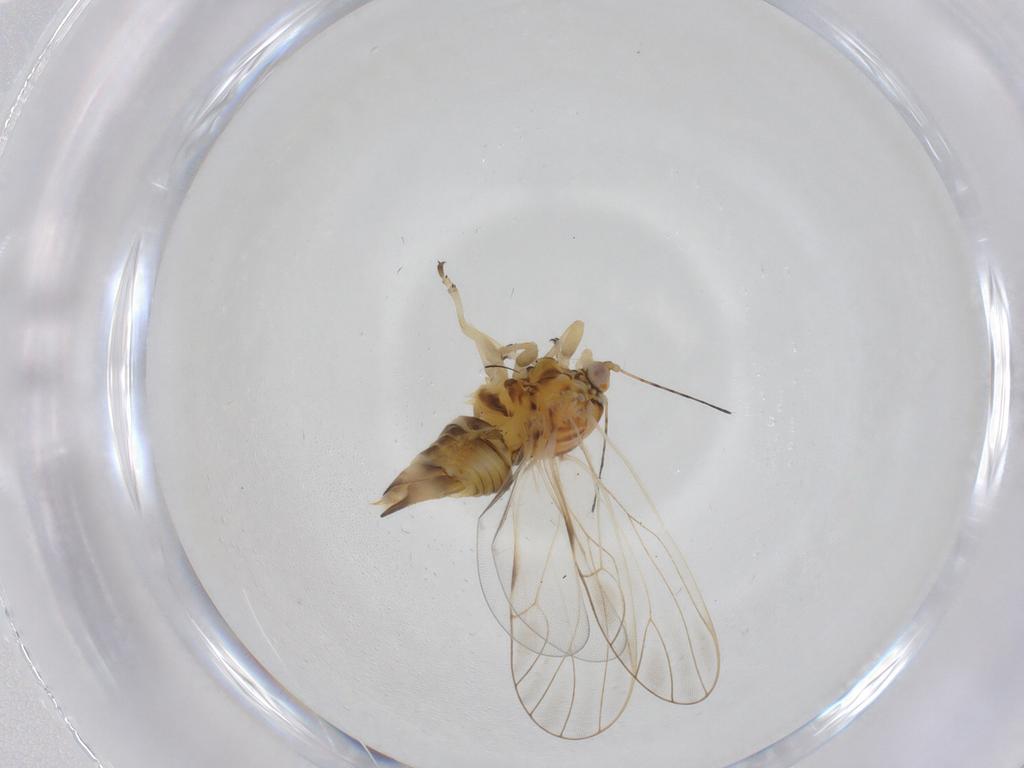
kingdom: Animalia
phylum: Arthropoda
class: Insecta
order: Hemiptera
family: Psyllidae
